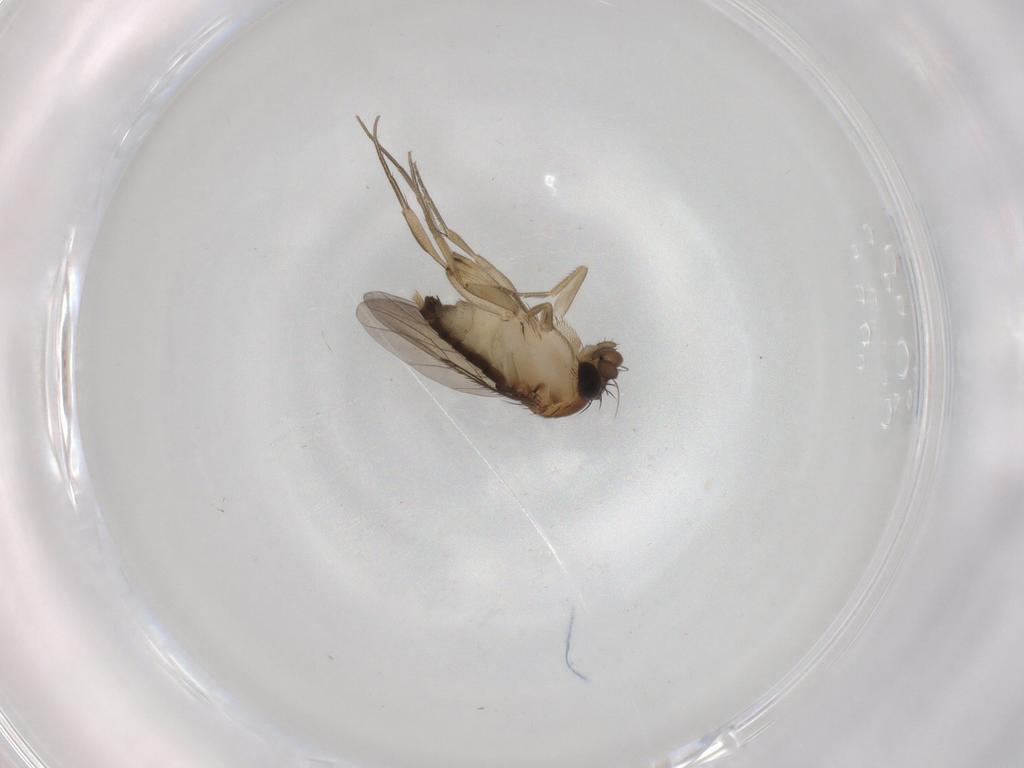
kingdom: Animalia
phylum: Arthropoda
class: Insecta
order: Diptera
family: Phoridae
